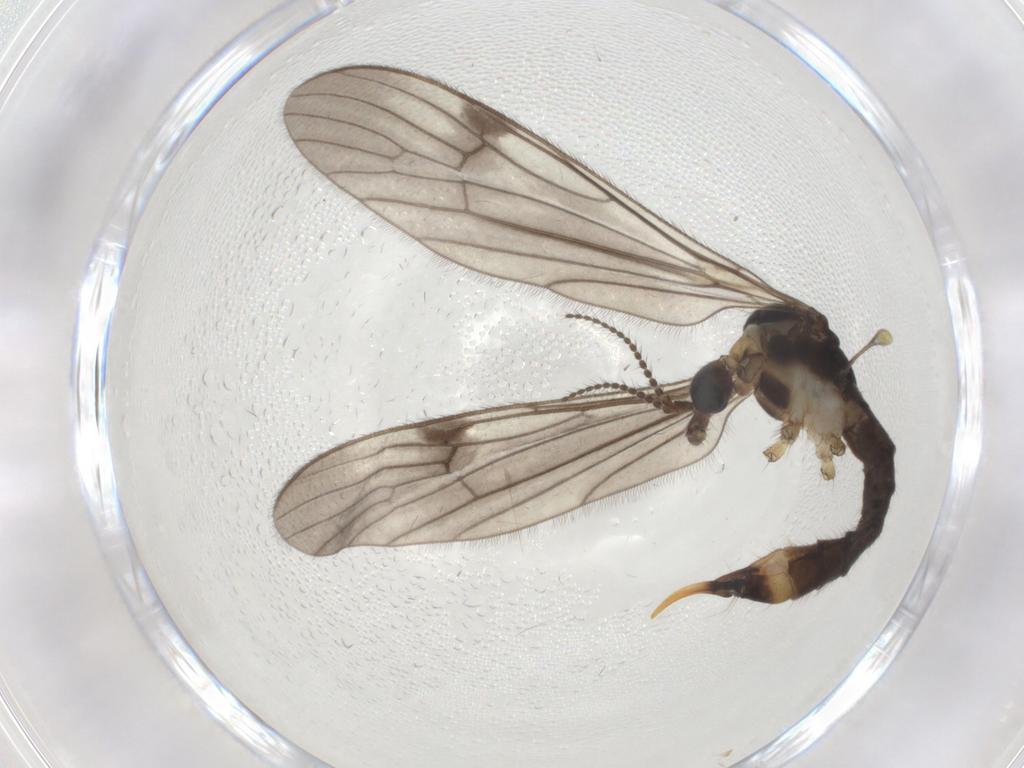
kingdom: Animalia
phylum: Arthropoda
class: Insecta
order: Diptera
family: Limoniidae
